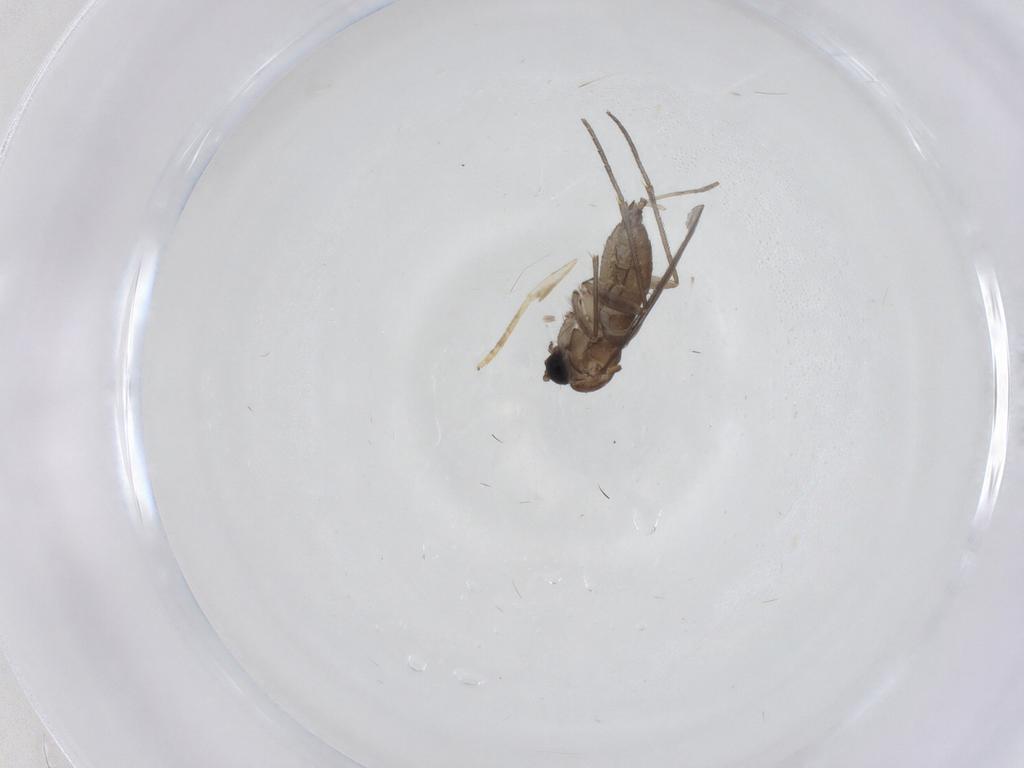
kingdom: Animalia
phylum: Arthropoda
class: Insecta
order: Diptera
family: Sciaridae
